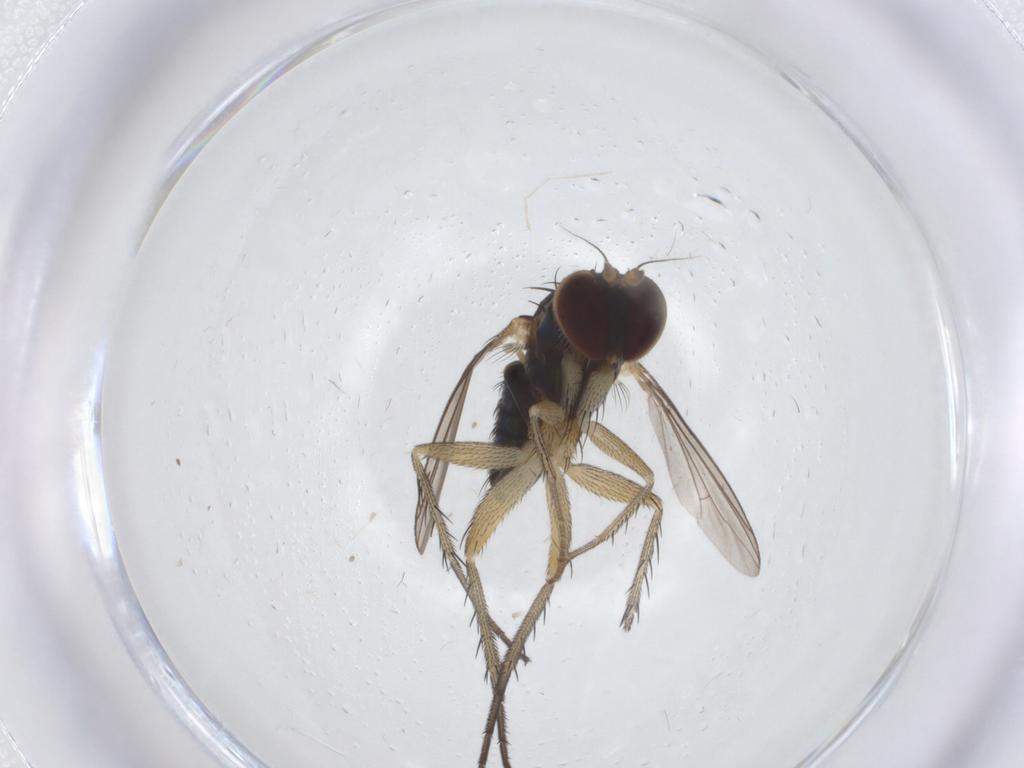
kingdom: Animalia
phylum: Arthropoda
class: Insecta
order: Diptera
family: Dolichopodidae
